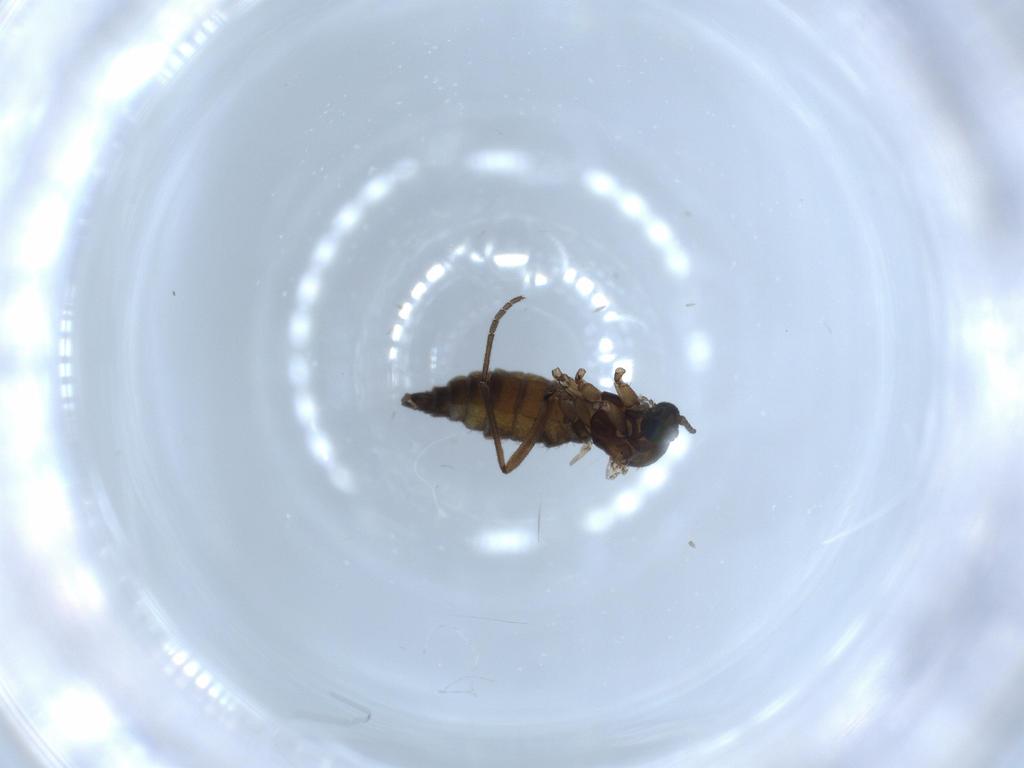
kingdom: Animalia
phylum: Arthropoda
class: Insecta
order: Diptera
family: Sciaridae
